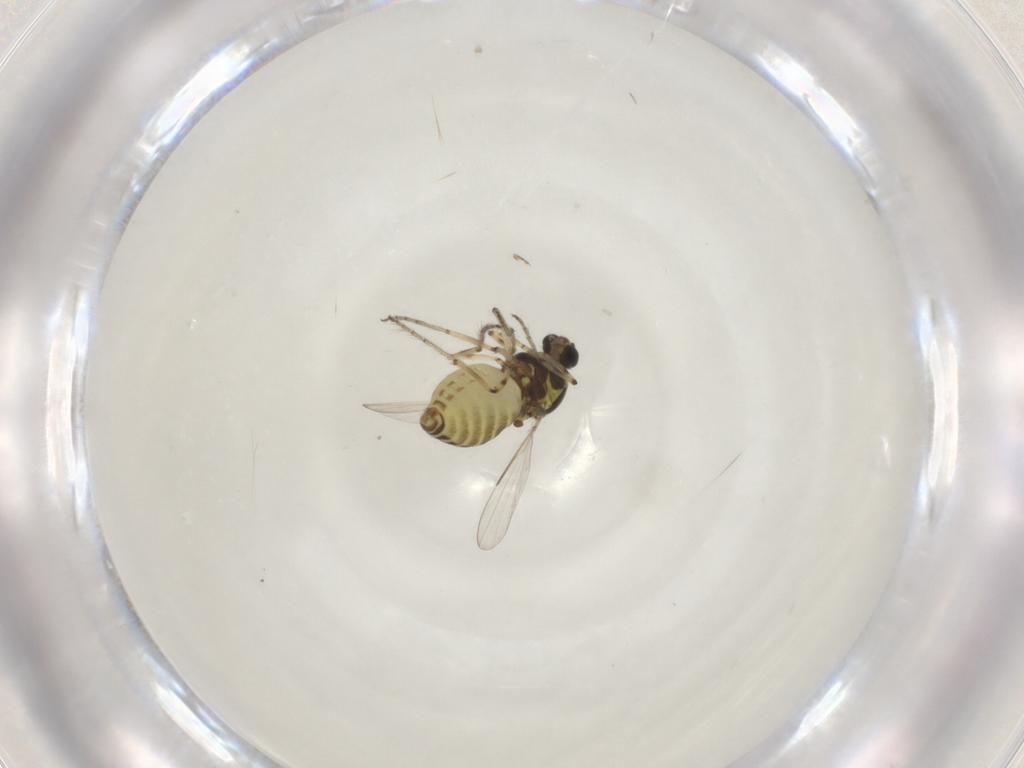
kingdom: Animalia
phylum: Arthropoda
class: Insecta
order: Diptera
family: Ceratopogonidae
